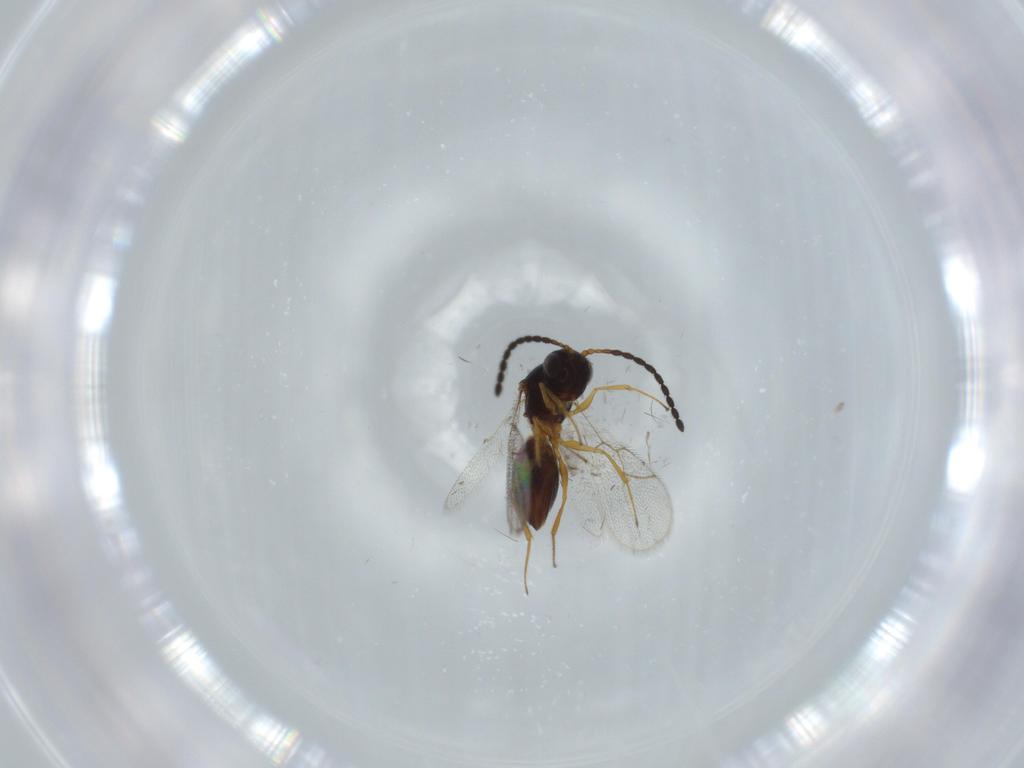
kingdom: Animalia
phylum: Arthropoda
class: Insecta
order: Hymenoptera
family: Figitidae
